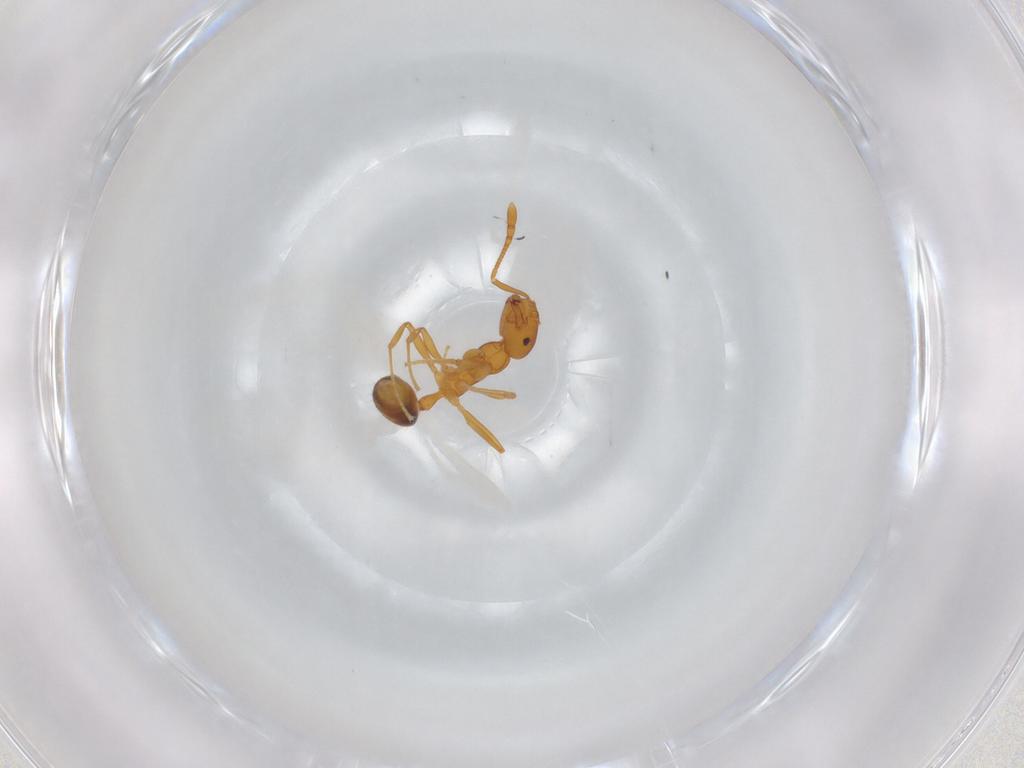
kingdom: Animalia
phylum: Arthropoda
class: Insecta
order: Hymenoptera
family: Formicidae
